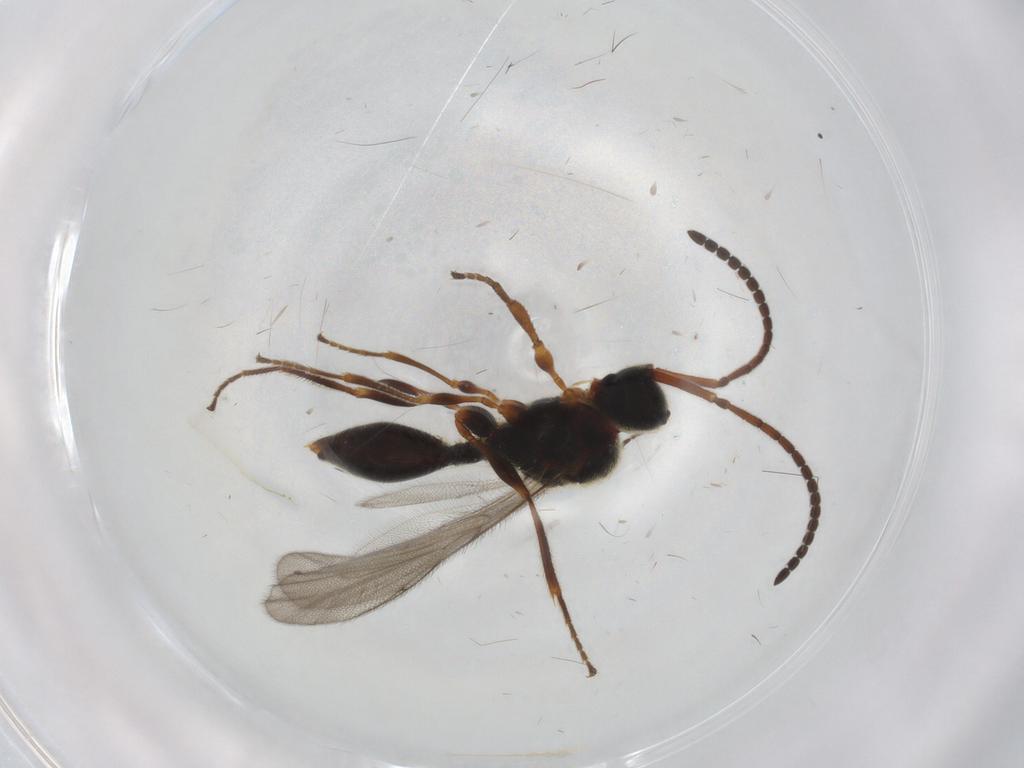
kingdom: Animalia
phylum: Arthropoda
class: Insecta
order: Hymenoptera
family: Mymaridae
